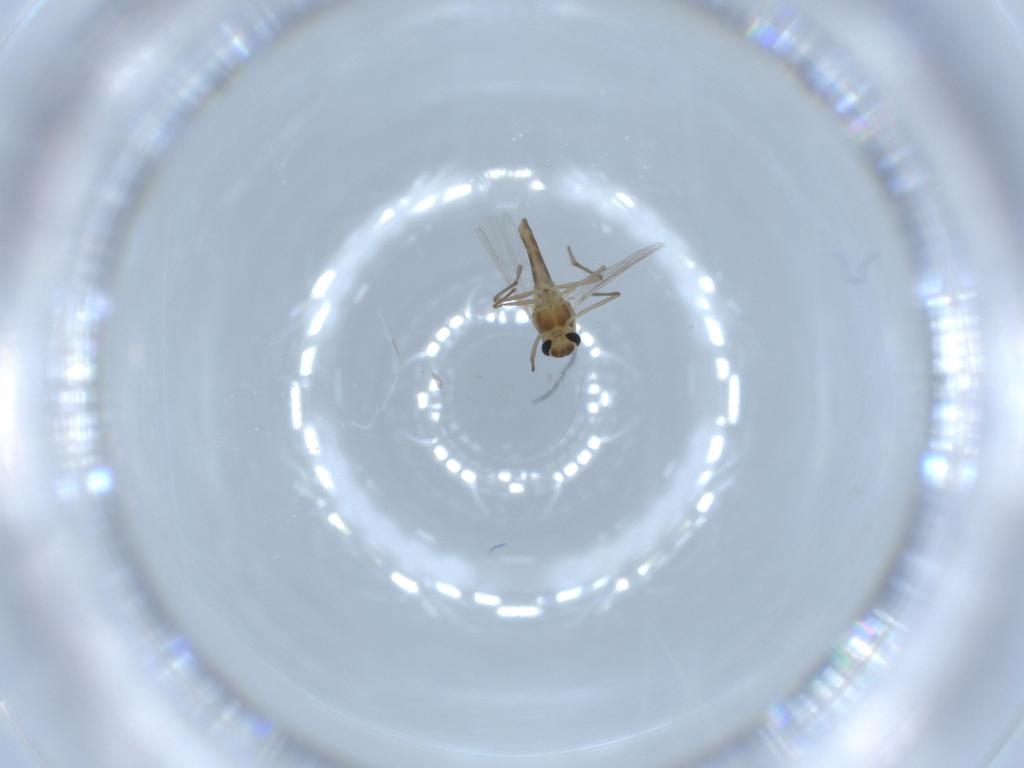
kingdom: Animalia
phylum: Arthropoda
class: Insecta
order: Diptera
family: Chironomidae
